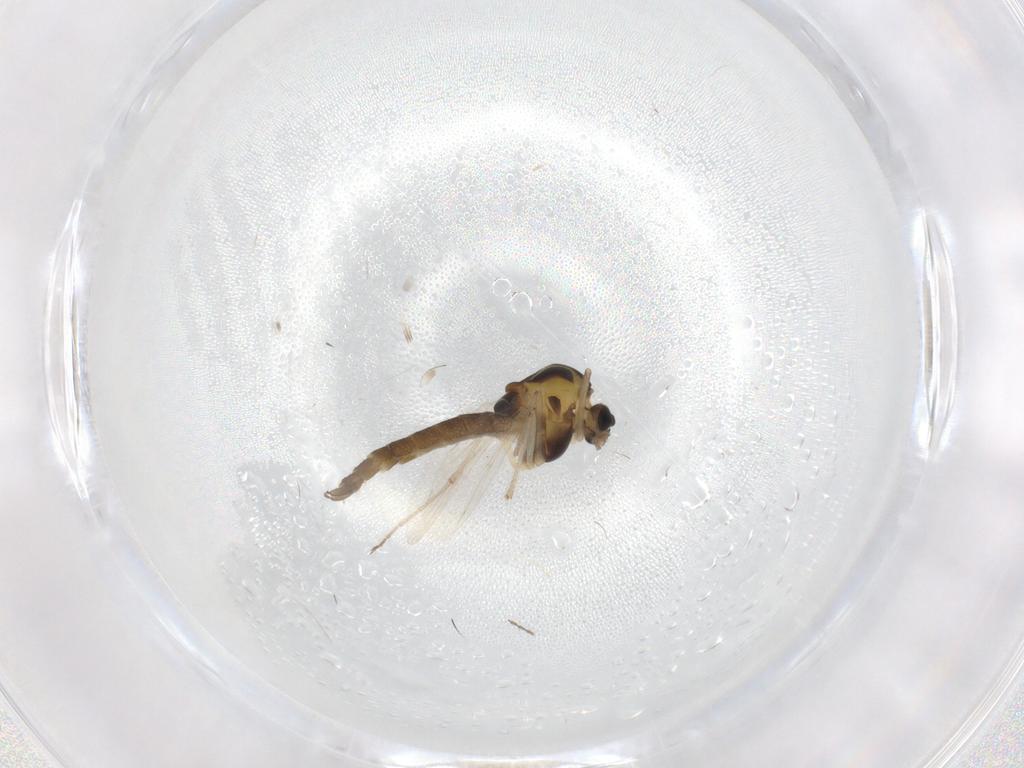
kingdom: Animalia
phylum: Arthropoda
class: Insecta
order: Diptera
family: Chironomidae
